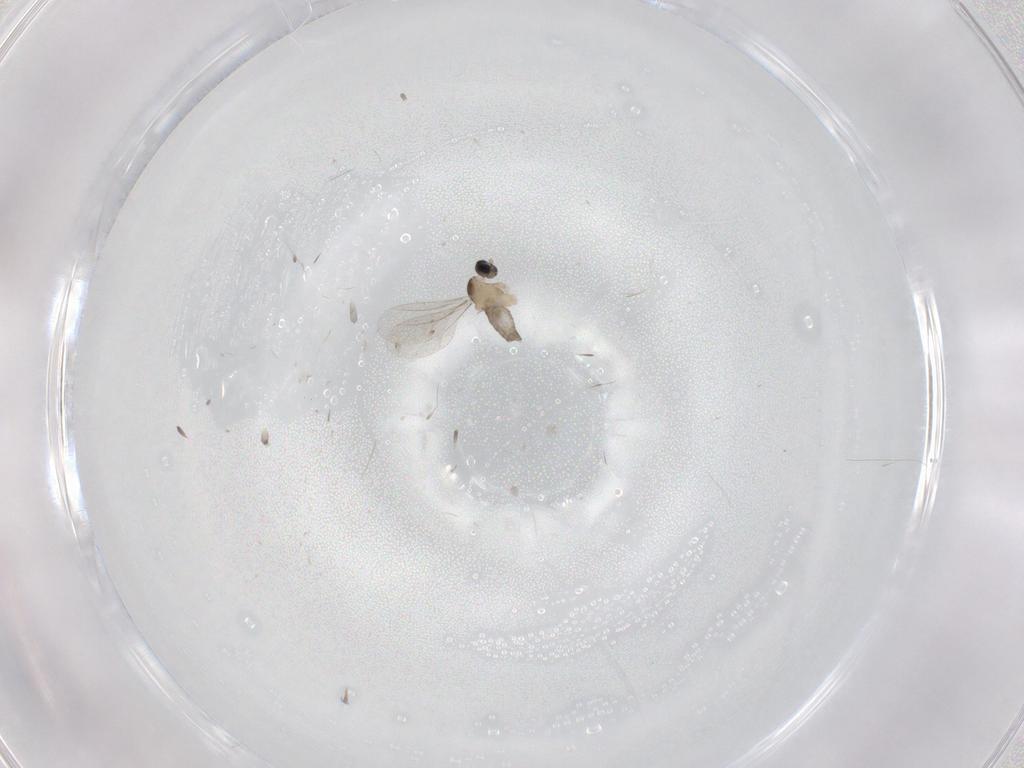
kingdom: Animalia
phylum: Arthropoda
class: Insecta
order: Diptera
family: Cecidomyiidae
